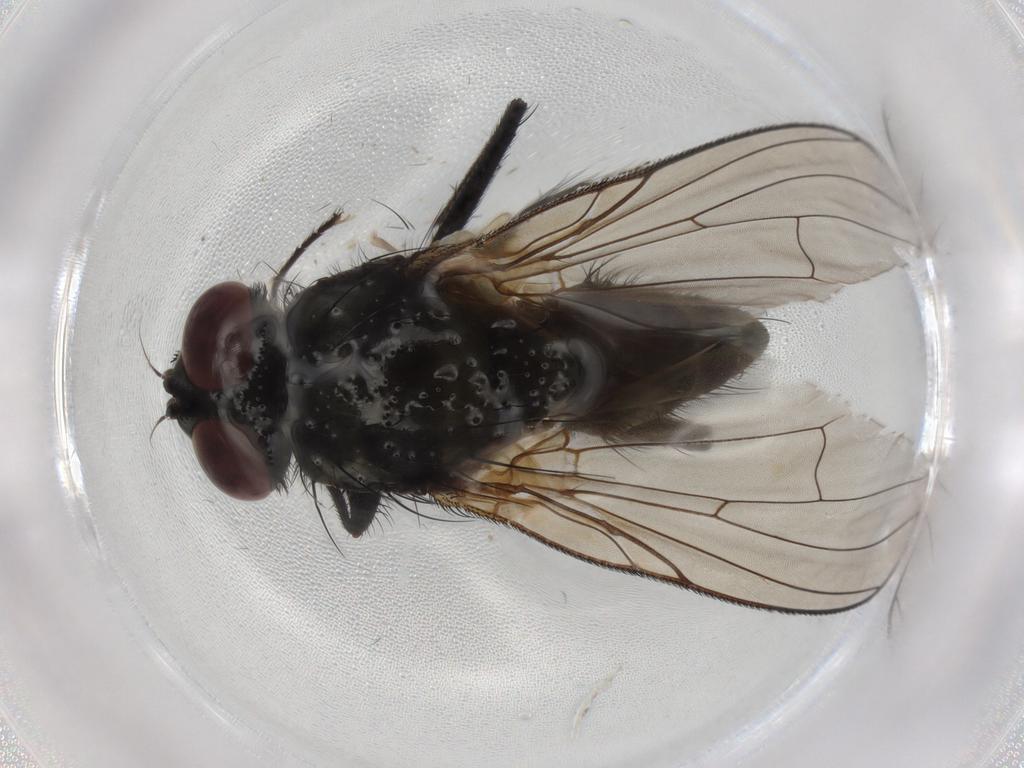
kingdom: Animalia
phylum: Arthropoda
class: Insecta
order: Diptera
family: Muscidae
